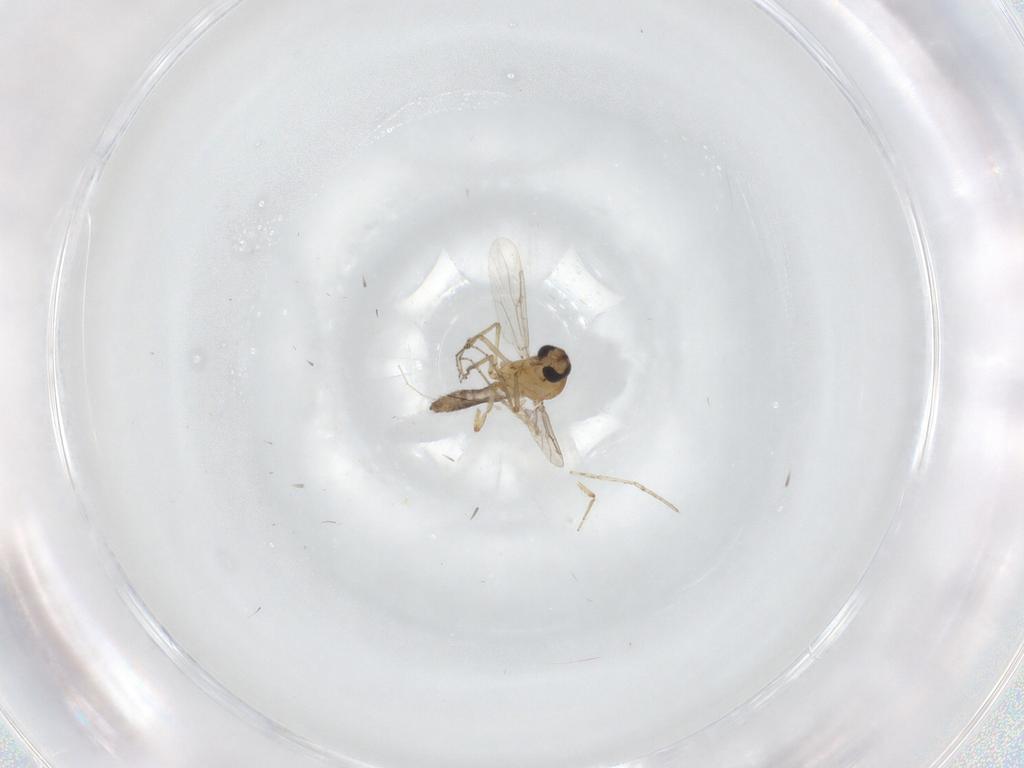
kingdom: Animalia
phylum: Arthropoda
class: Insecta
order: Diptera
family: Cecidomyiidae
